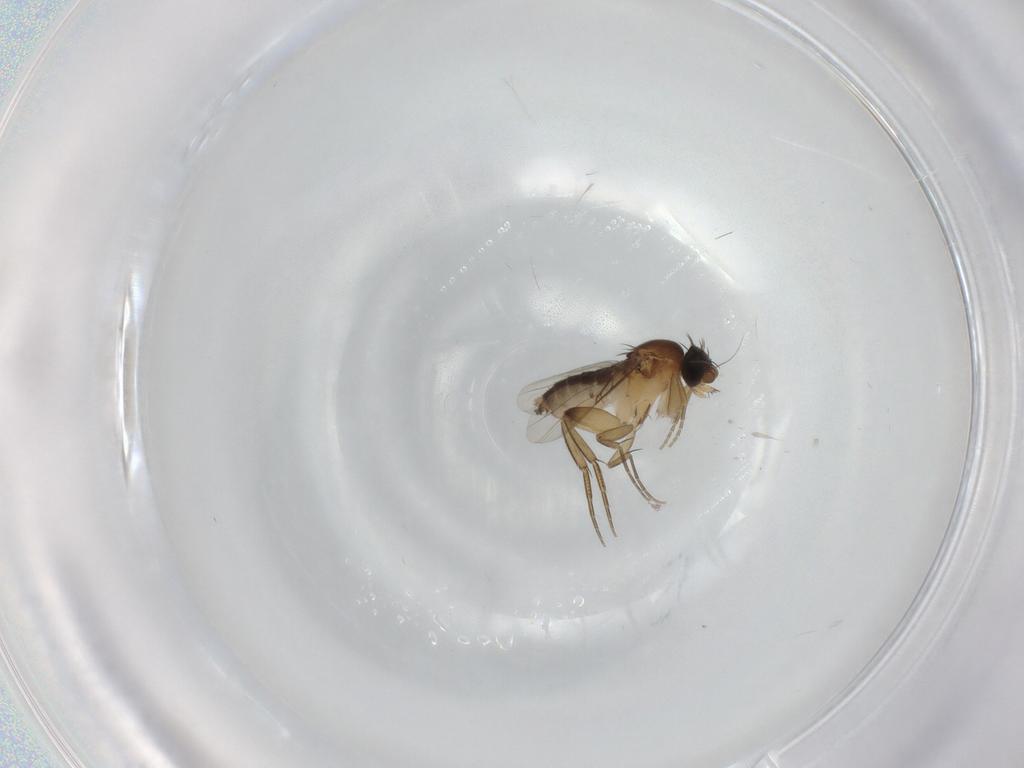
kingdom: Animalia
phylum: Arthropoda
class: Insecta
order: Diptera
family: Phoridae
